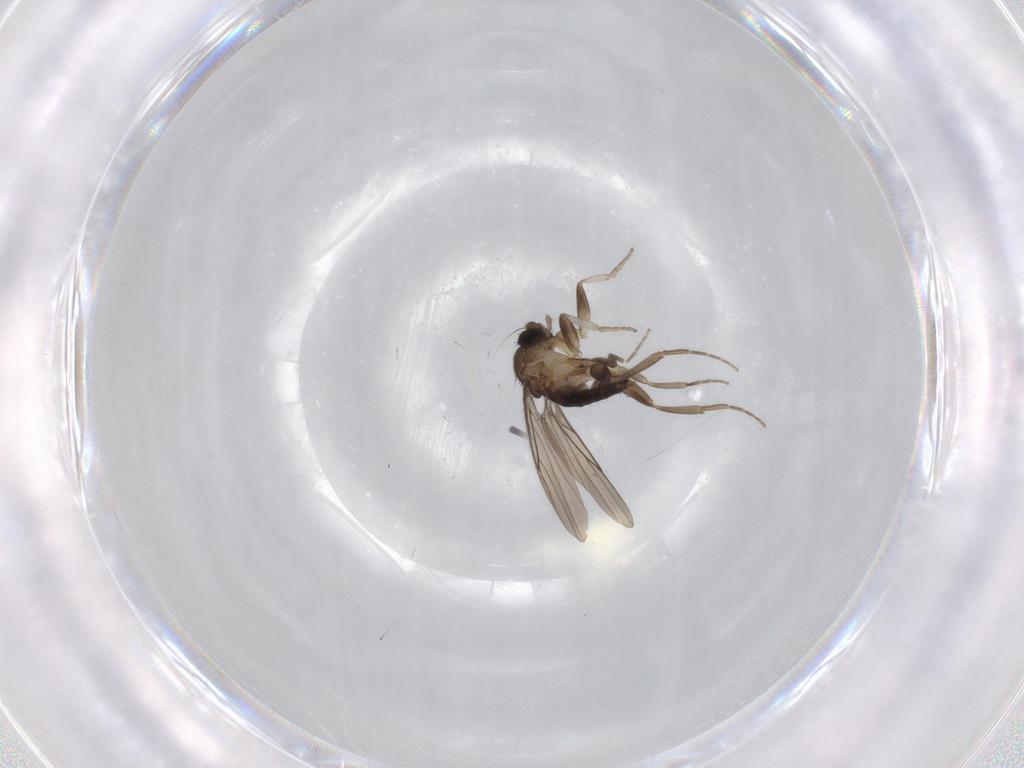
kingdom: Animalia
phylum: Arthropoda
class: Insecta
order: Diptera
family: Phoridae
